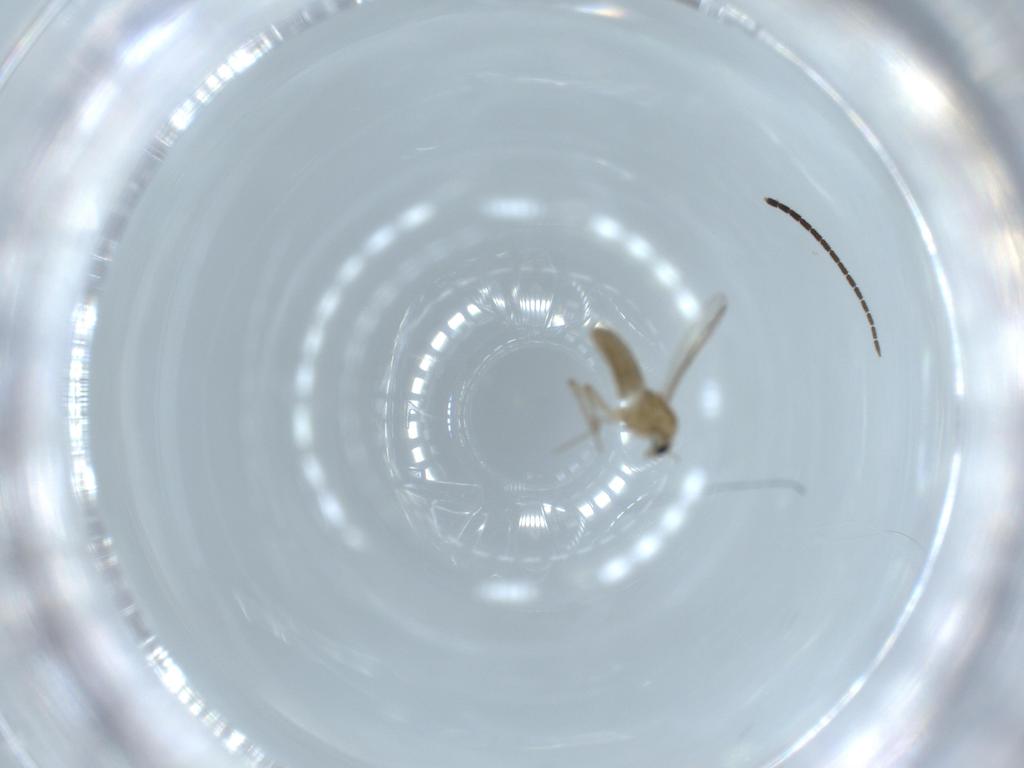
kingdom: Animalia
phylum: Arthropoda
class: Insecta
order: Diptera
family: Sciaridae
